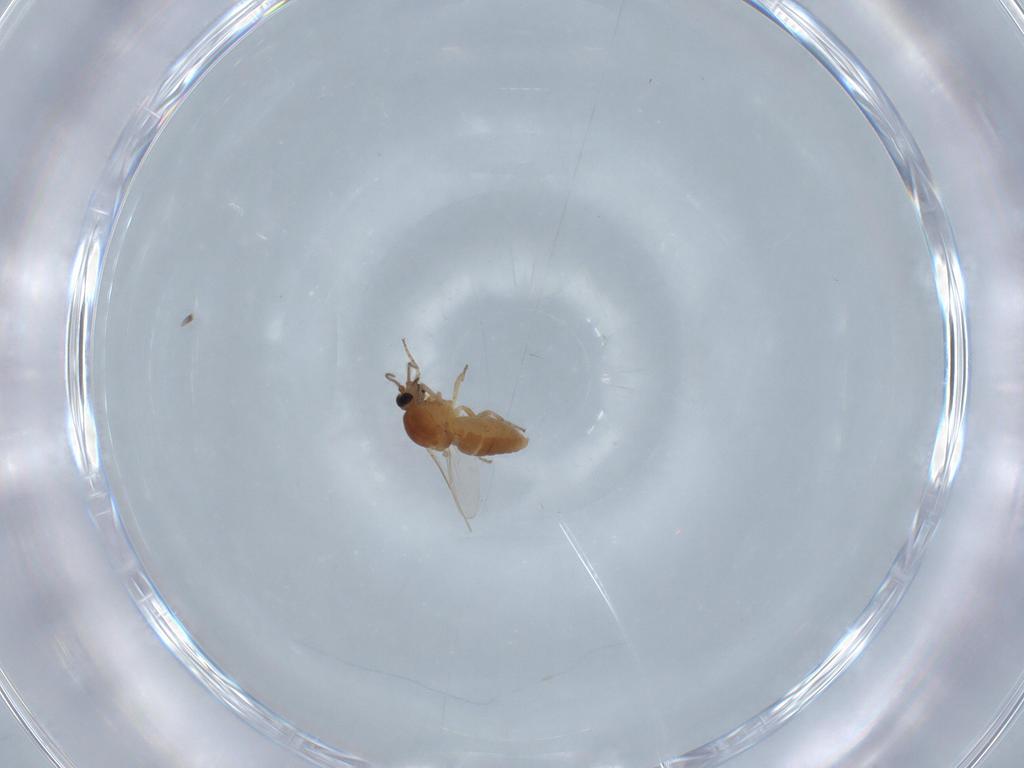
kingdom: Animalia
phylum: Arthropoda
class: Insecta
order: Diptera
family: Ceratopogonidae
